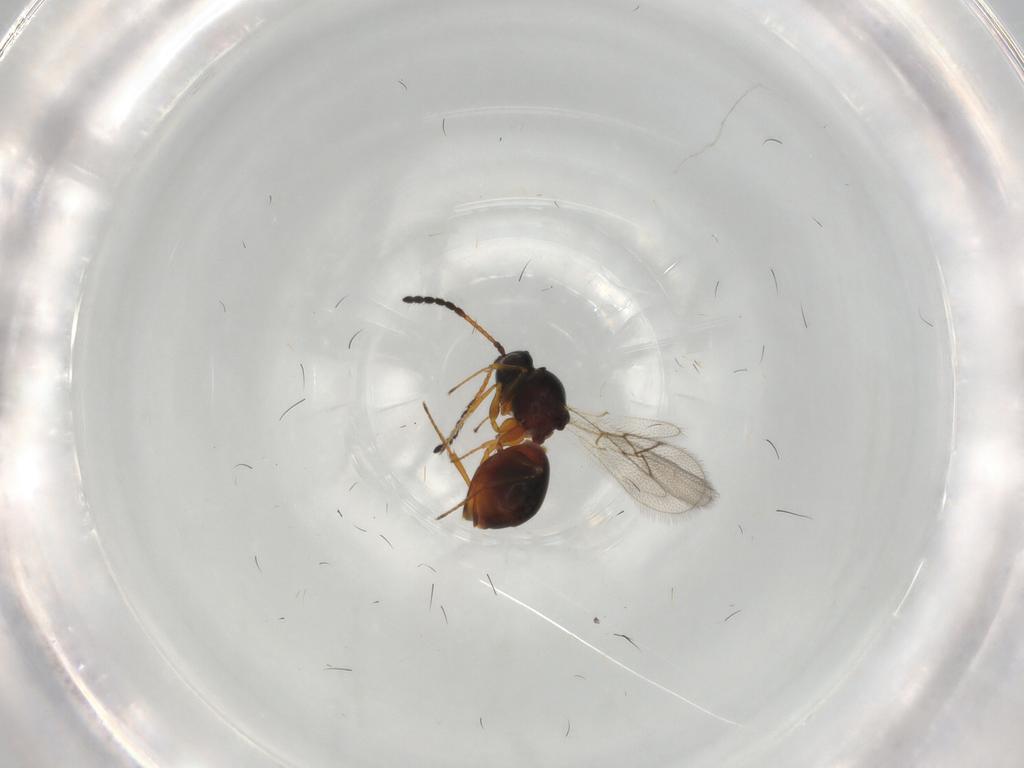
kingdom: Animalia
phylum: Arthropoda
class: Insecta
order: Hymenoptera
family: Figitidae
